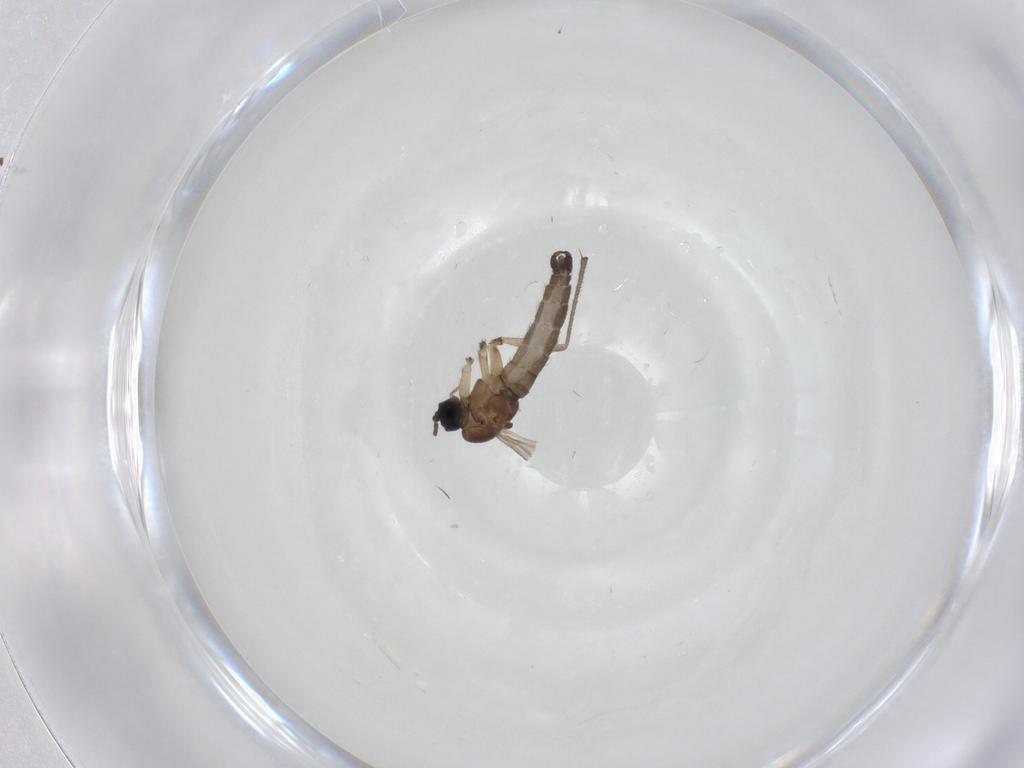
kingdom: Animalia
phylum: Arthropoda
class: Insecta
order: Diptera
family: Sciaridae
